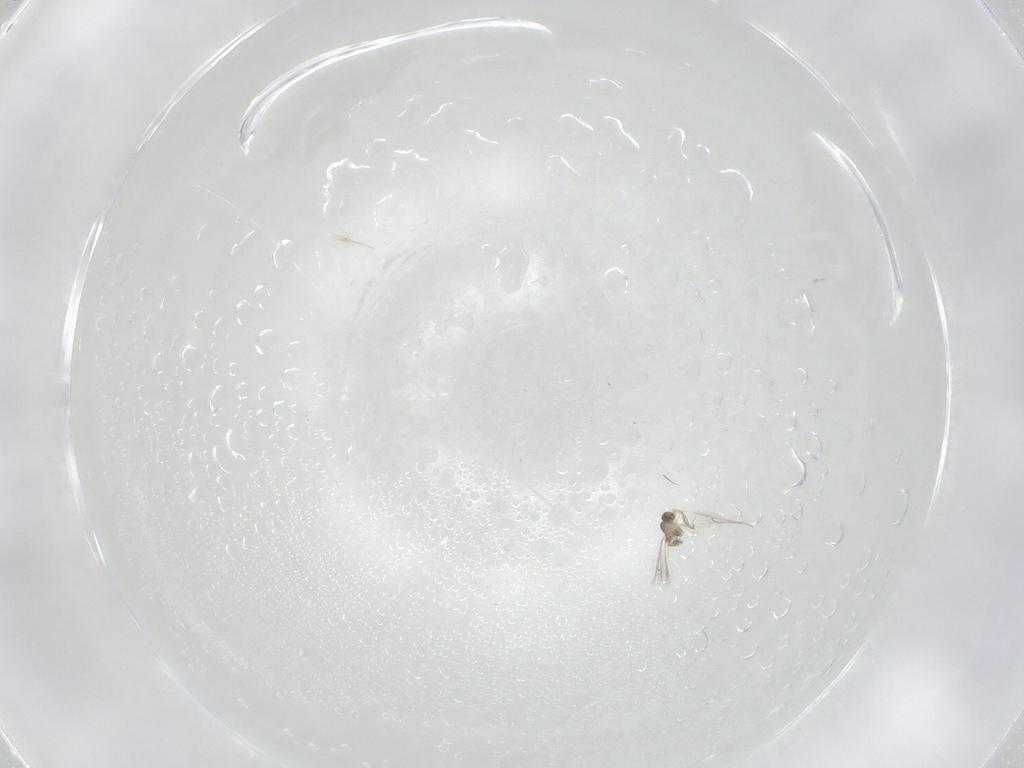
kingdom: Animalia
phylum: Arthropoda
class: Insecta
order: Hymenoptera
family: Mymaridae
